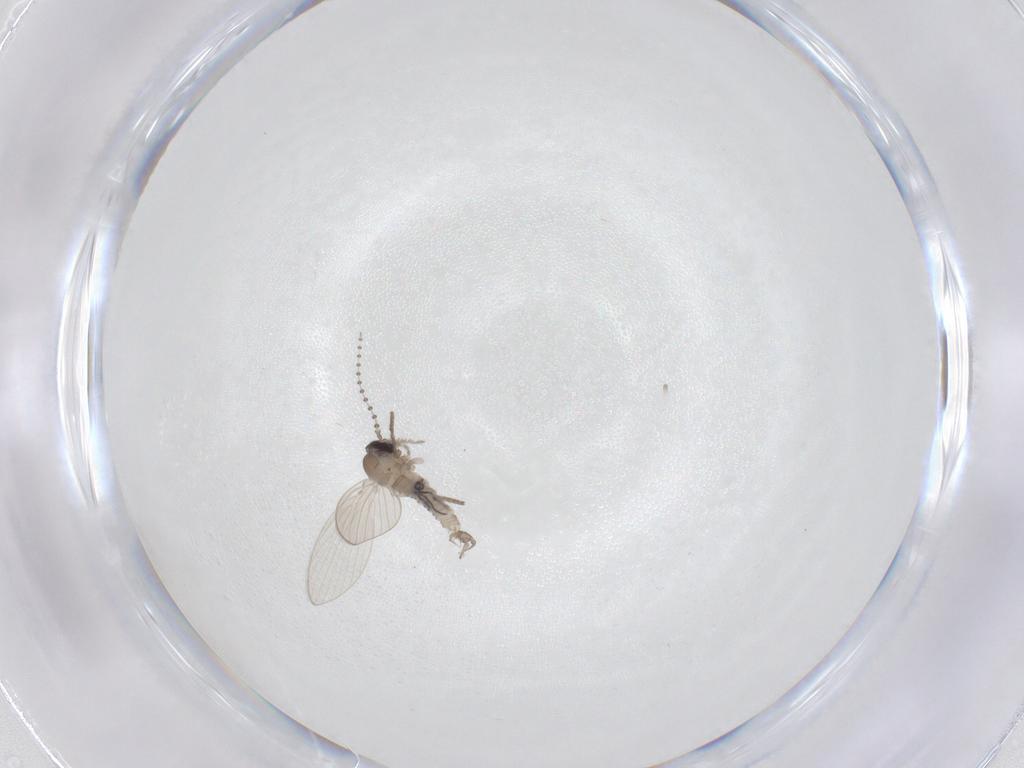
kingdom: Animalia
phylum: Arthropoda
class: Insecta
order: Diptera
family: Psychodidae
